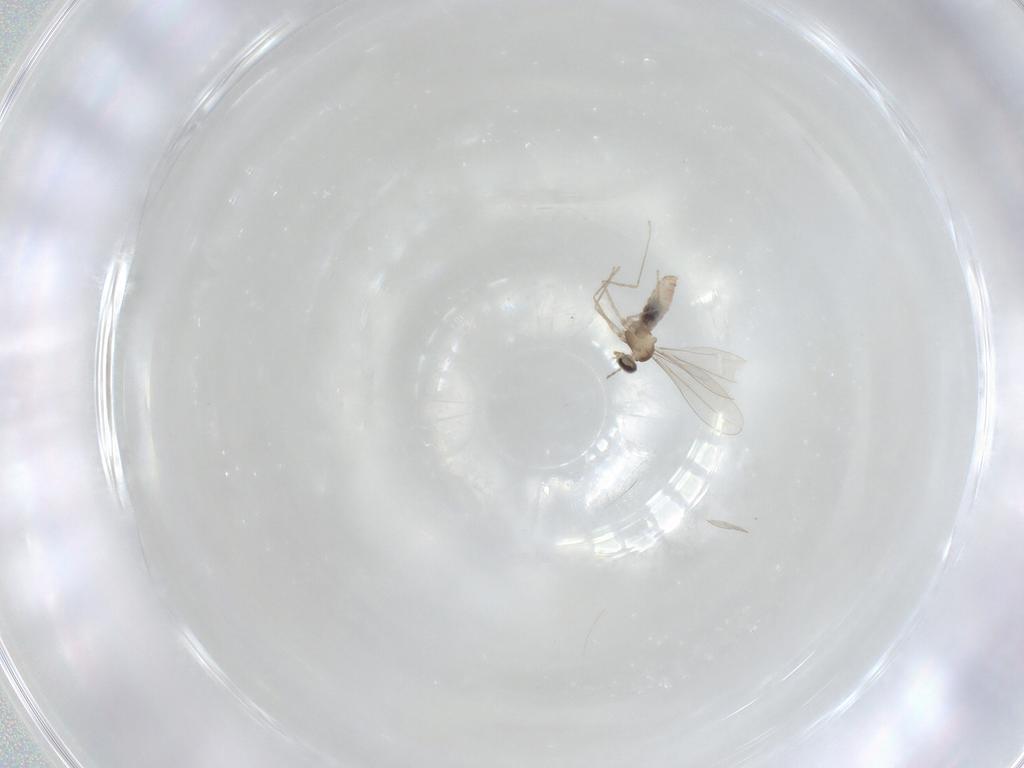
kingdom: Animalia
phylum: Arthropoda
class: Insecta
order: Diptera
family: Cecidomyiidae
